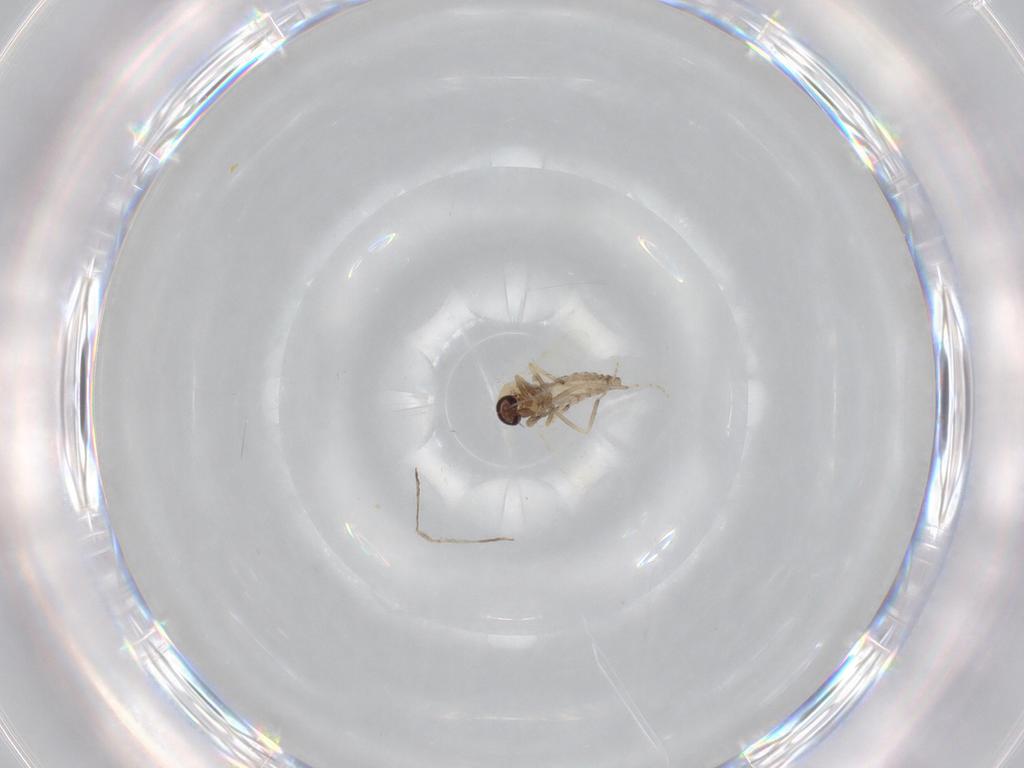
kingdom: Animalia
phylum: Arthropoda
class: Insecta
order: Diptera
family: Ceratopogonidae
